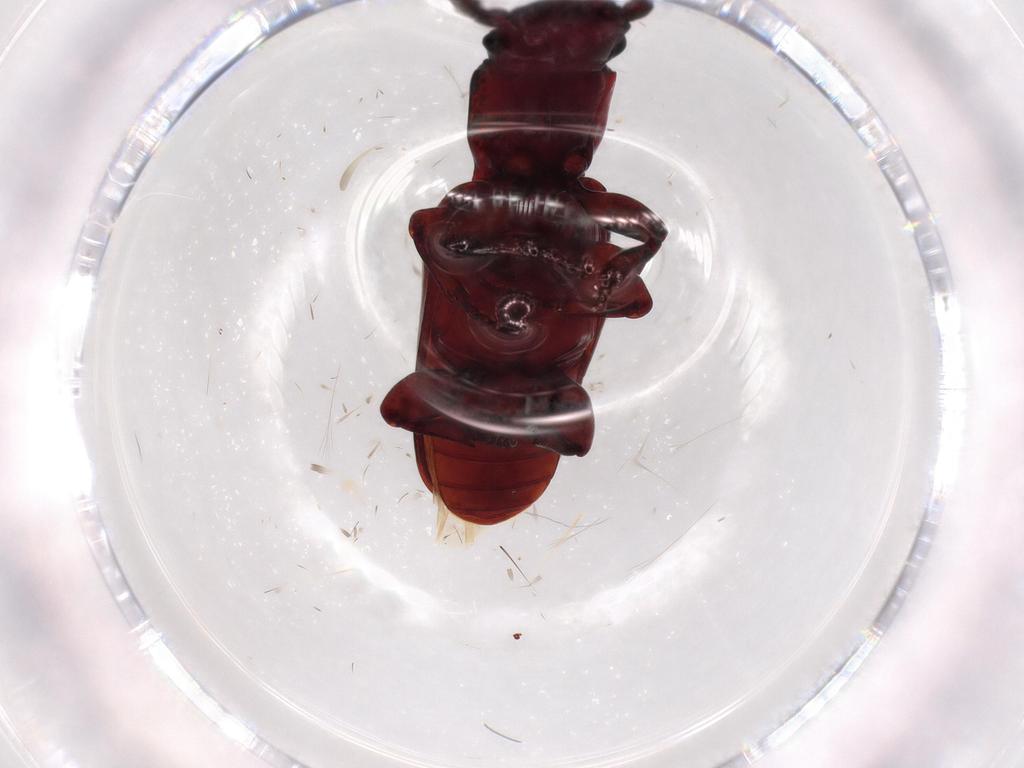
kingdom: Animalia
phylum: Arthropoda
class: Insecta
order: Coleoptera
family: Passandridae
